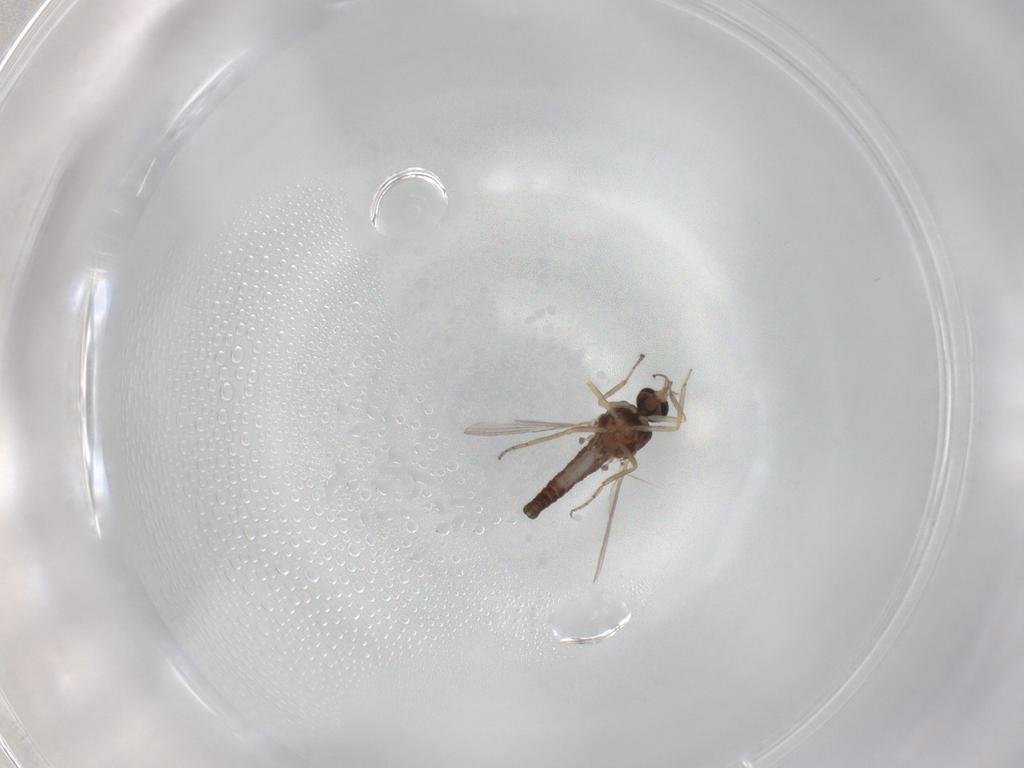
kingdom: Animalia
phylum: Arthropoda
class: Insecta
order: Diptera
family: Ceratopogonidae
